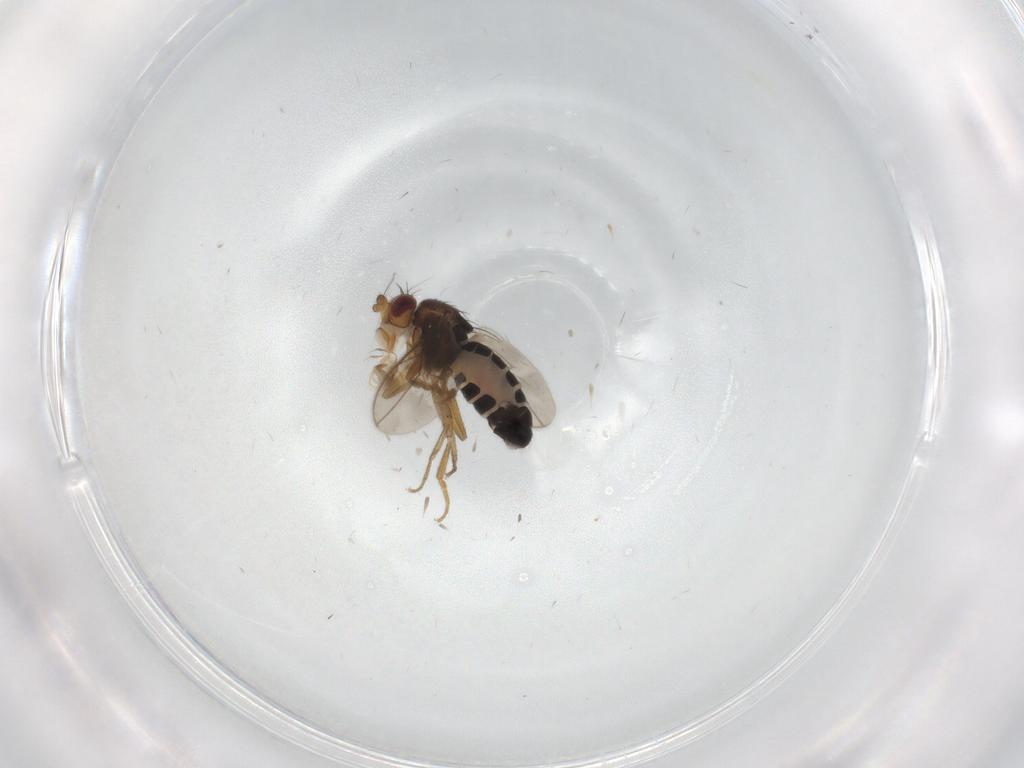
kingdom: Animalia
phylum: Arthropoda
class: Insecta
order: Diptera
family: Sphaeroceridae
